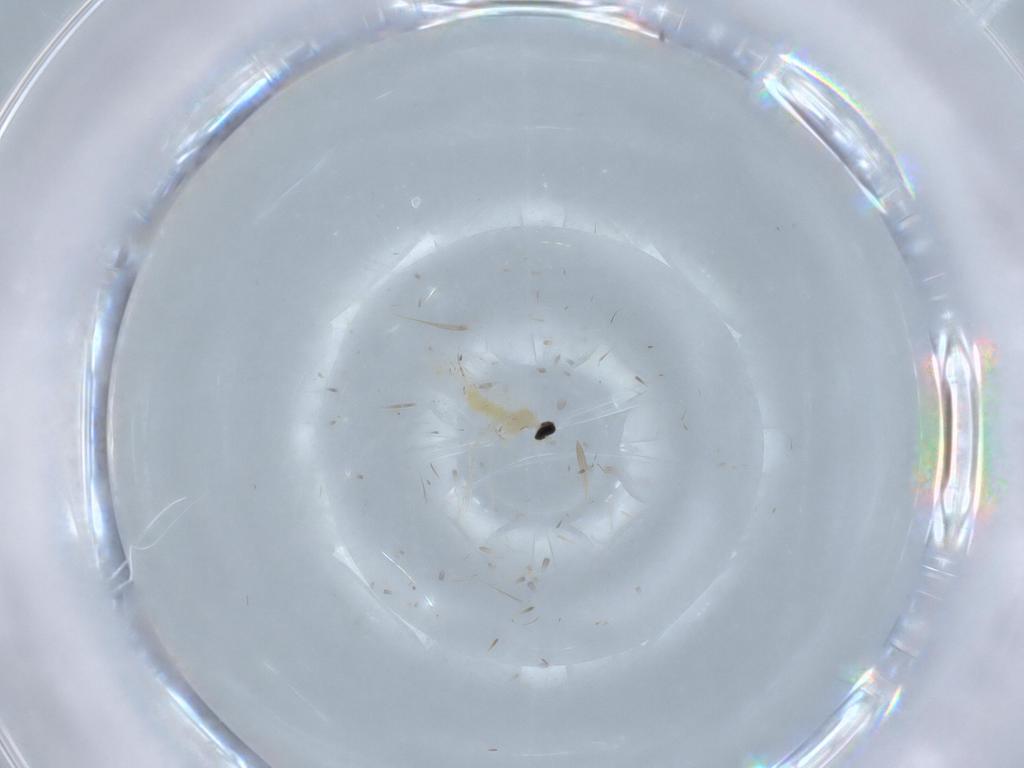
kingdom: Animalia
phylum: Arthropoda
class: Insecta
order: Diptera
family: Cecidomyiidae
